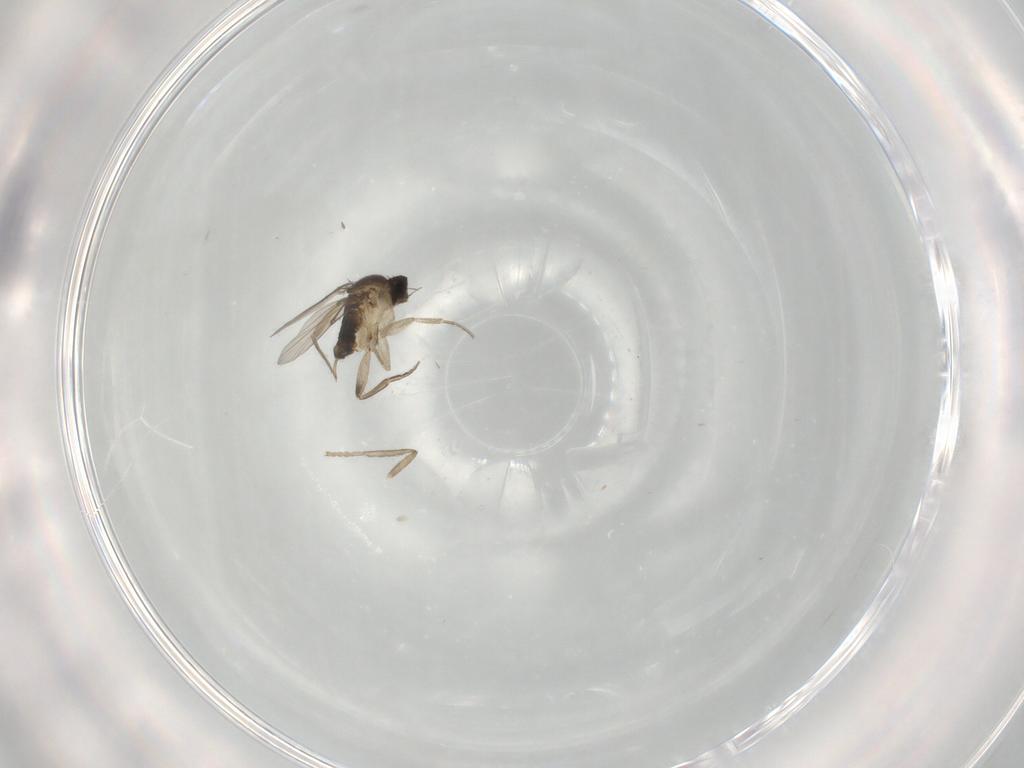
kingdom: Animalia
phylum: Arthropoda
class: Insecta
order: Diptera
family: Phoridae
